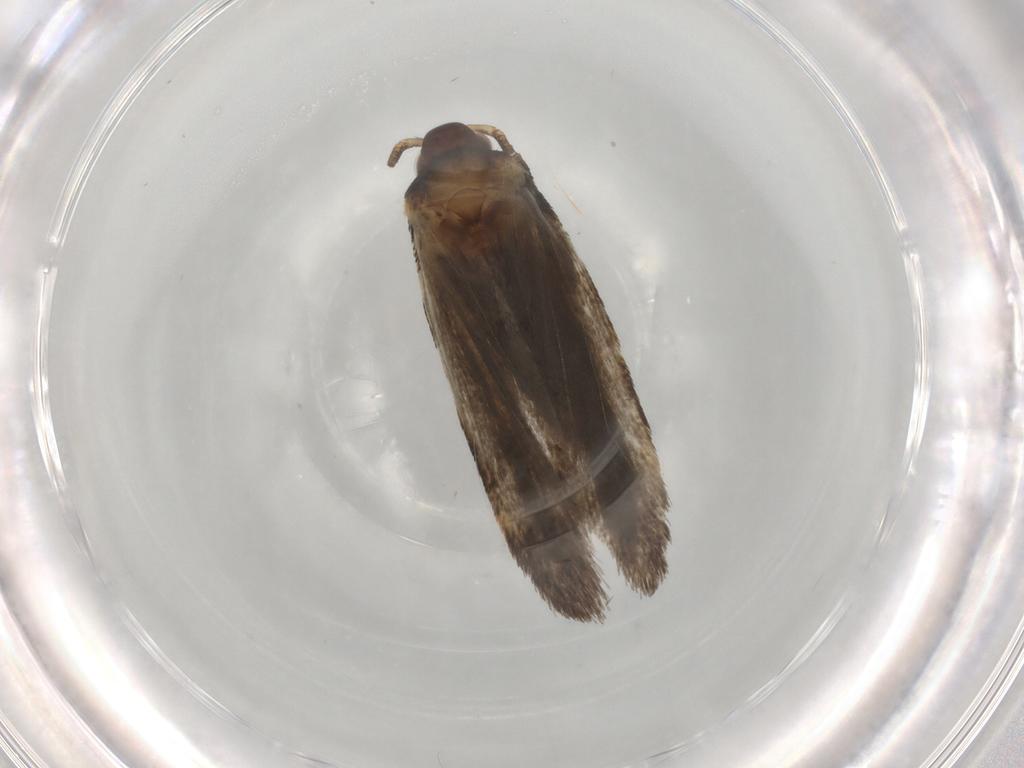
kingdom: Animalia
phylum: Arthropoda
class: Insecta
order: Lepidoptera
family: Autostichidae
